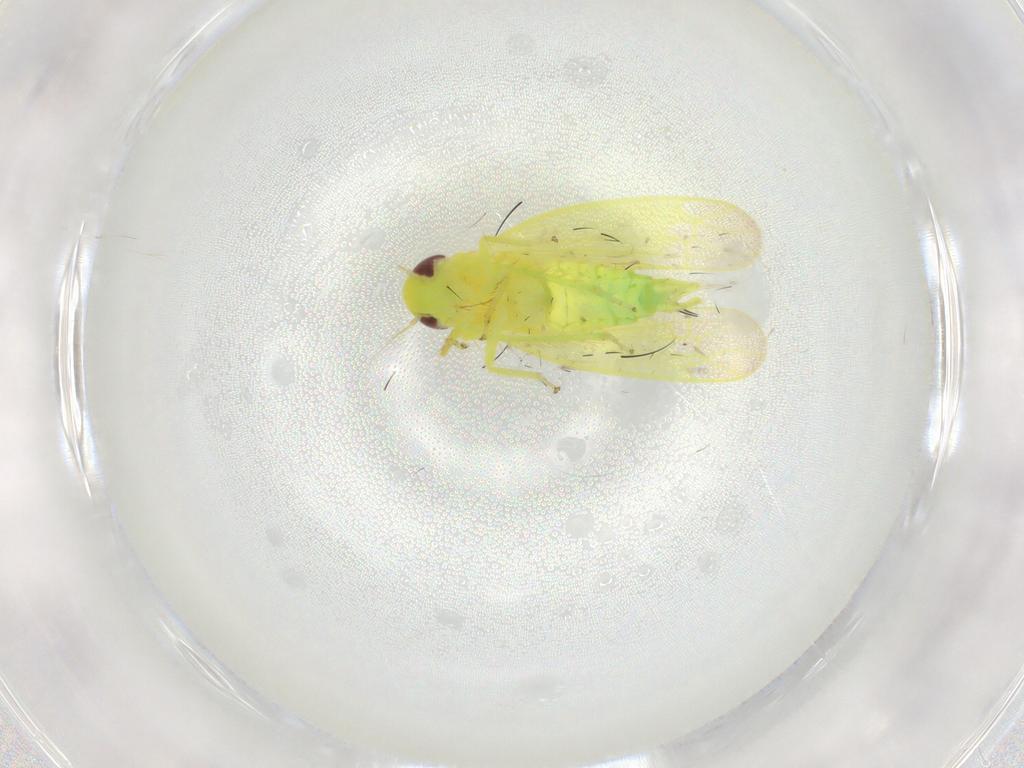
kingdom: Animalia
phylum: Arthropoda
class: Insecta
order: Hemiptera
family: Cicadellidae
